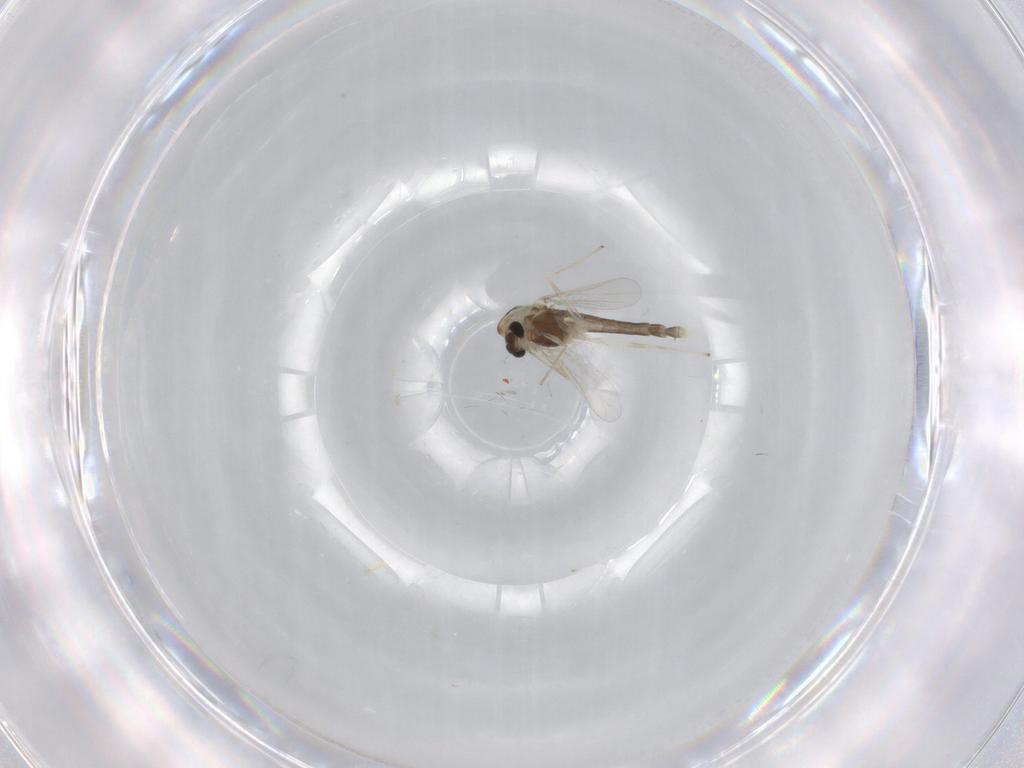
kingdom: Animalia
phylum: Arthropoda
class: Insecta
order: Diptera
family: Chironomidae
